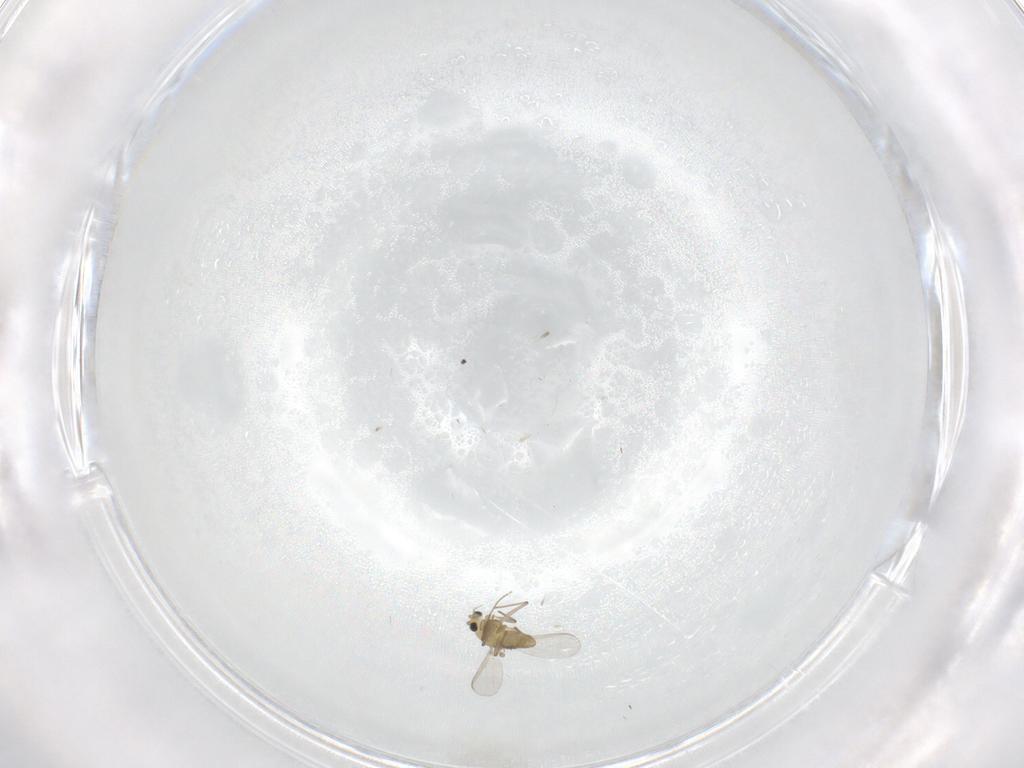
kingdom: Animalia
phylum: Arthropoda
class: Insecta
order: Diptera
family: Chironomidae
